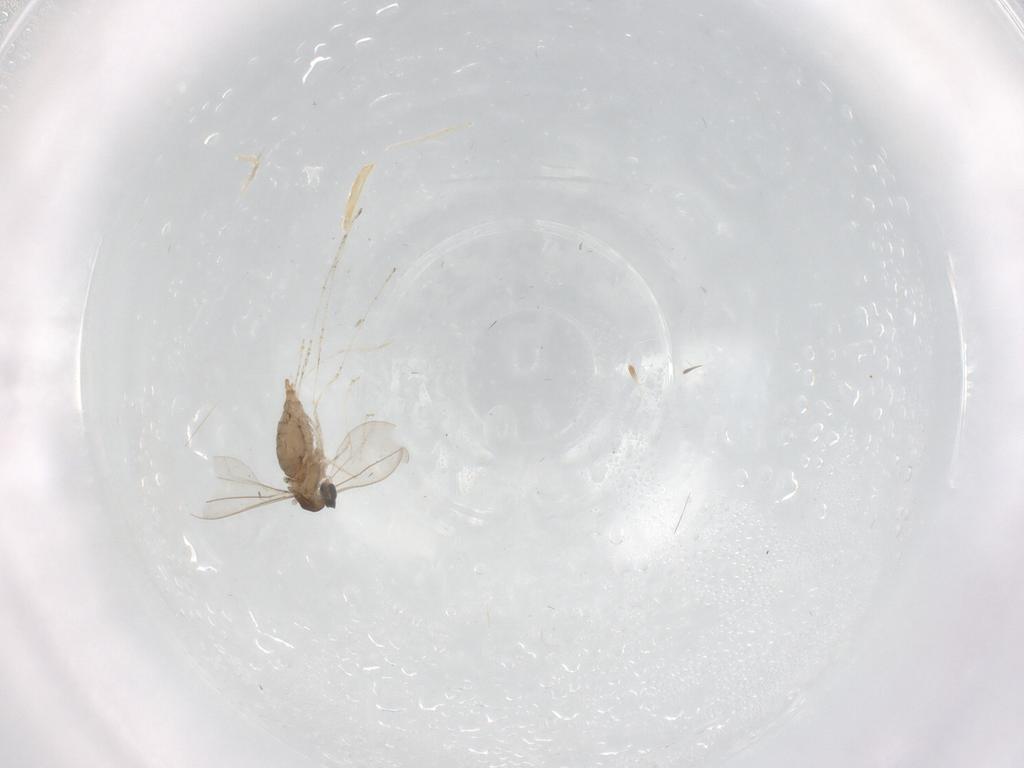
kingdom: Animalia
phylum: Arthropoda
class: Insecta
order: Diptera
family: Cecidomyiidae
